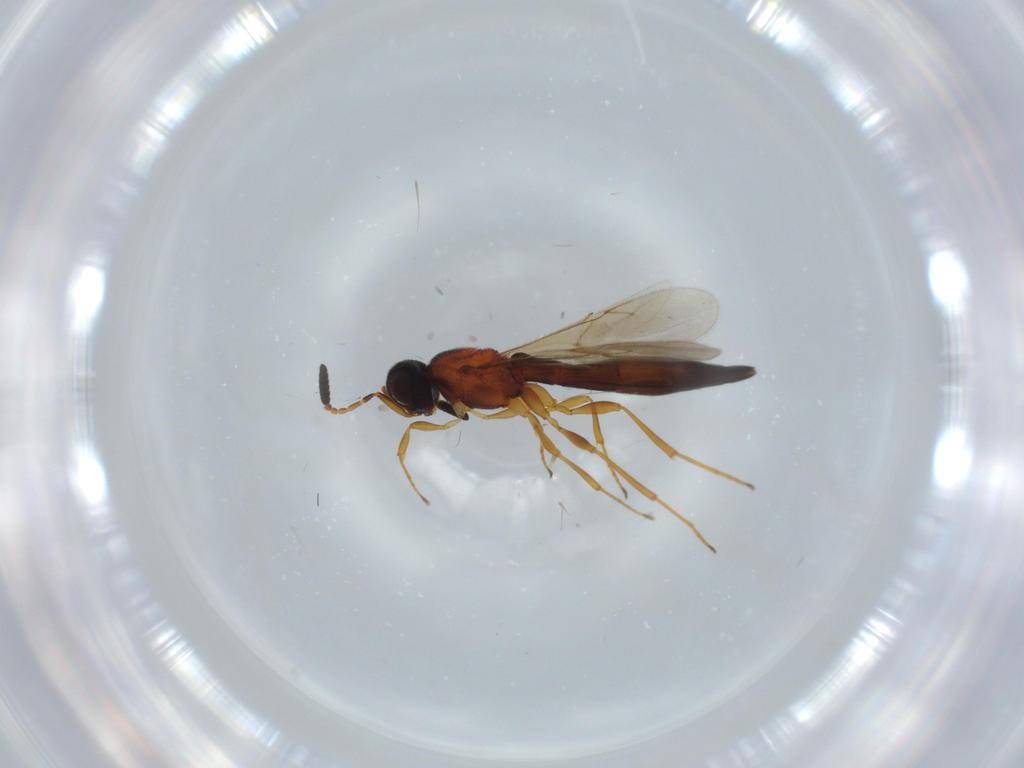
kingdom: Animalia
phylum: Arthropoda
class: Insecta
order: Hymenoptera
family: Scelionidae
